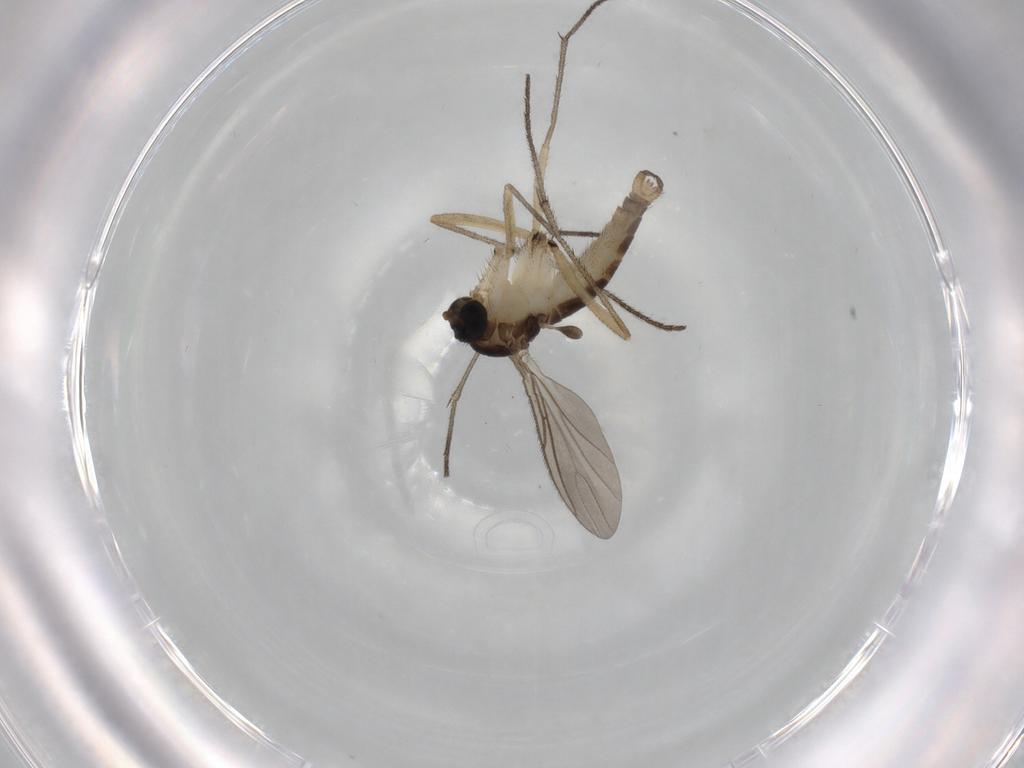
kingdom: Animalia
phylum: Arthropoda
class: Insecta
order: Diptera
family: Sciaridae
